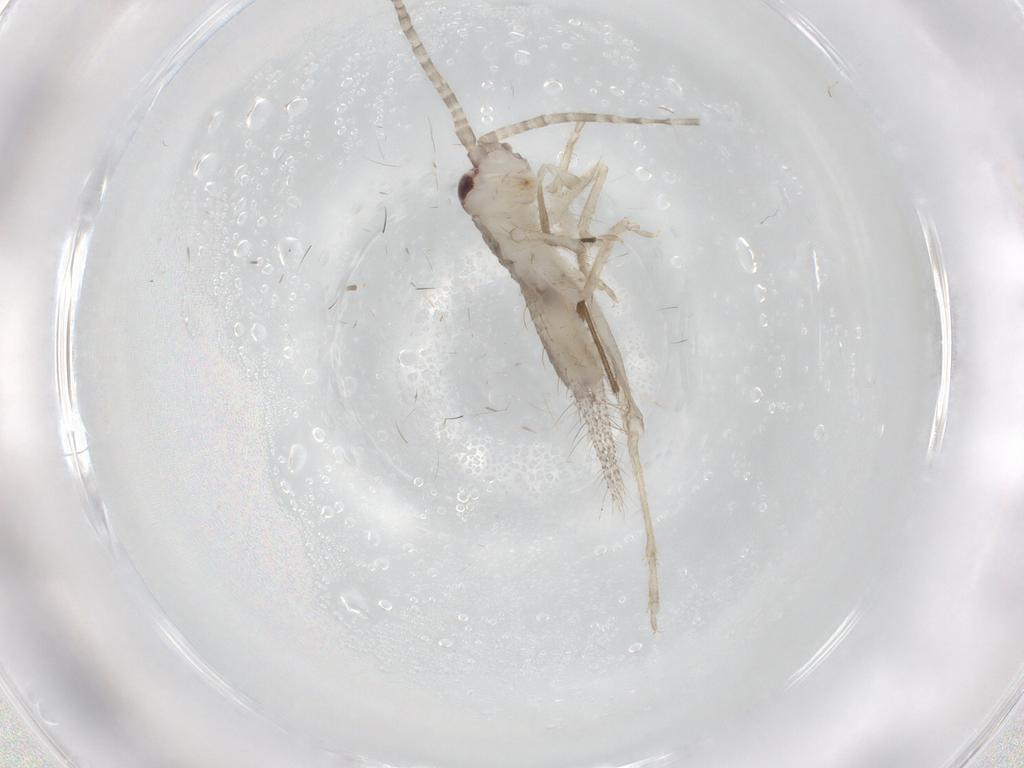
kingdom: Animalia
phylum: Arthropoda
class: Insecta
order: Orthoptera
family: Gryllidae
